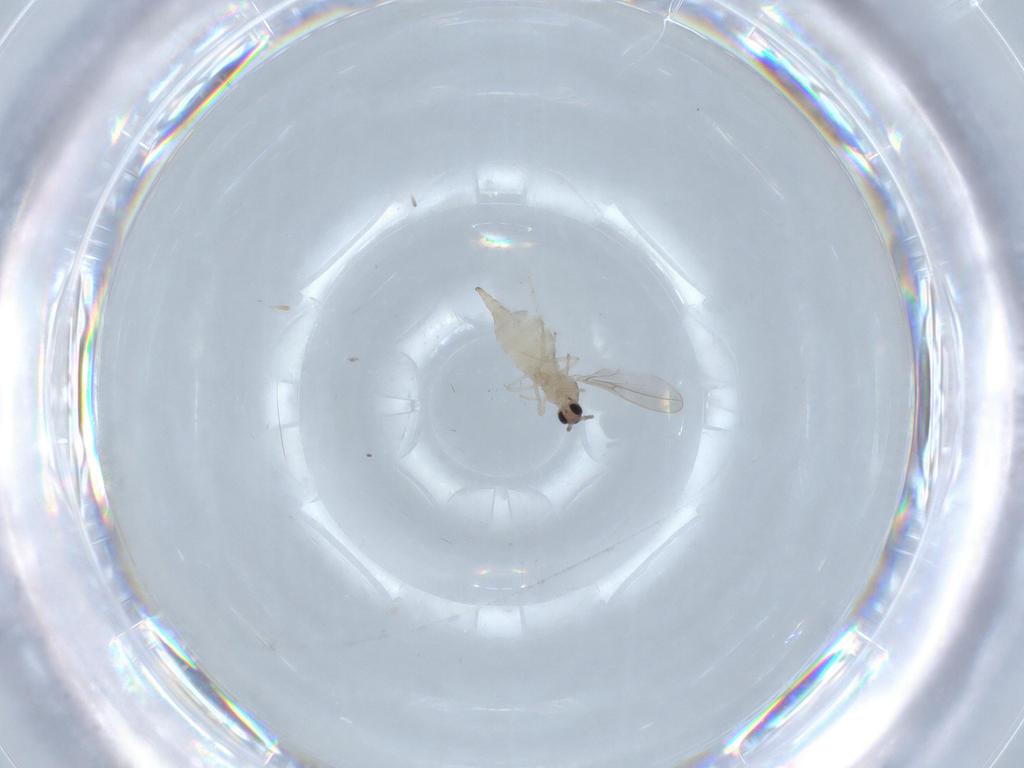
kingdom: Animalia
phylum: Arthropoda
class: Insecta
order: Diptera
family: Cecidomyiidae
